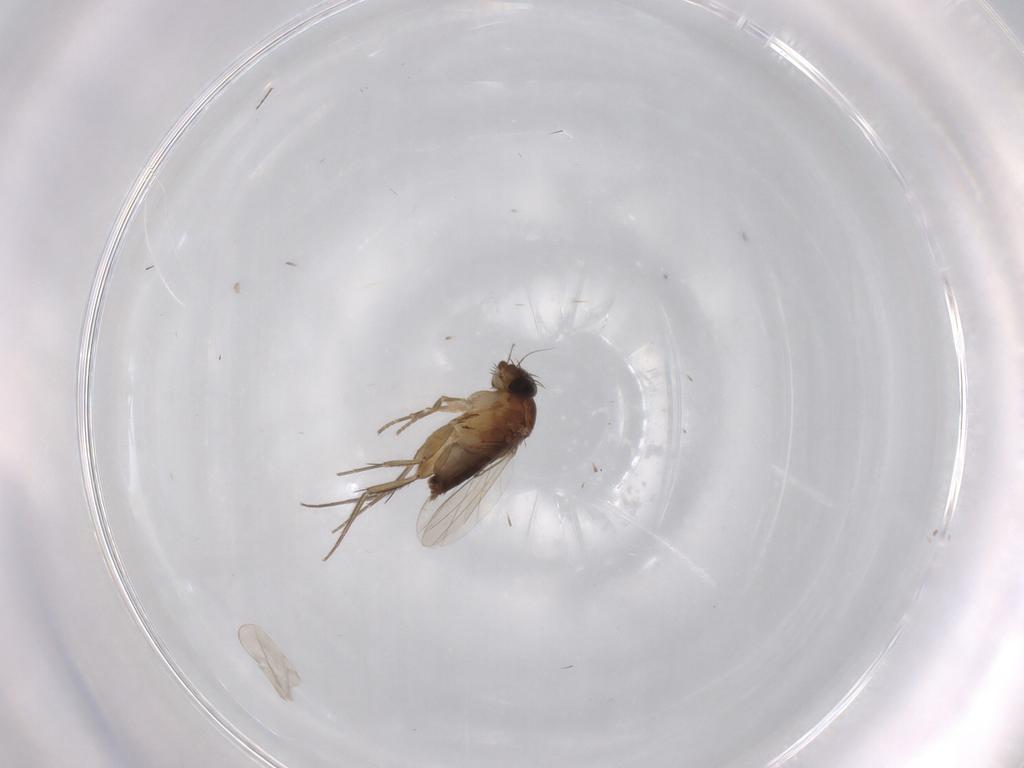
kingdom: Animalia
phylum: Arthropoda
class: Insecta
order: Diptera
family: Phoridae
